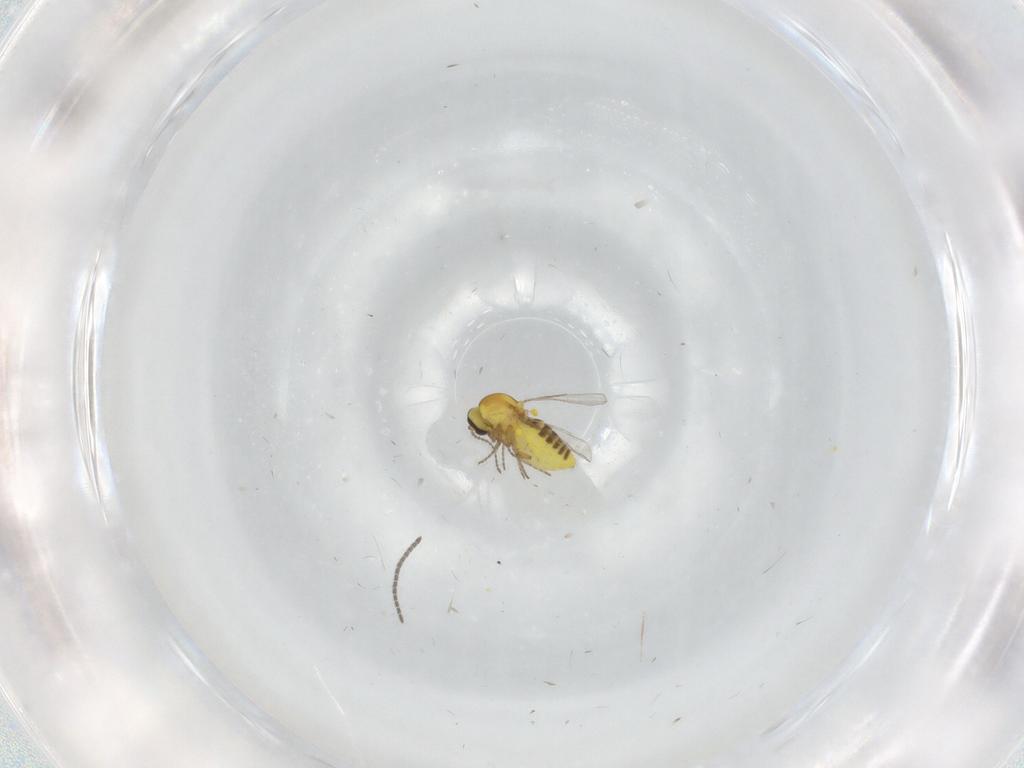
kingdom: Animalia
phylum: Arthropoda
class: Insecta
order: Diptera
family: Ceratopogonidae
